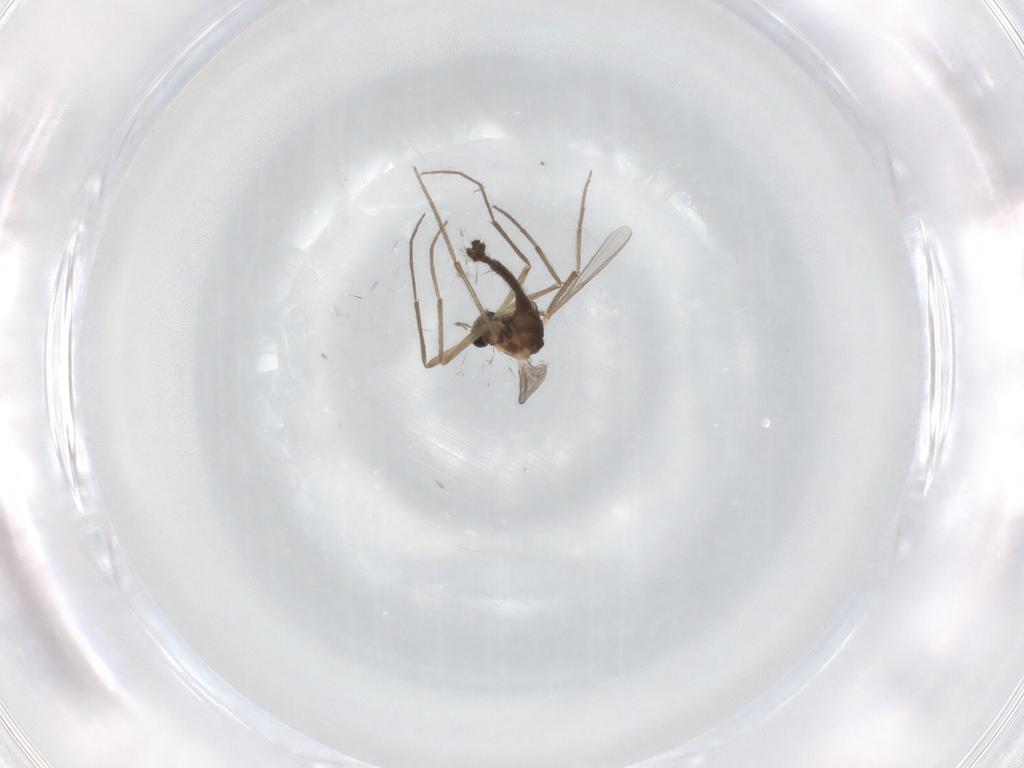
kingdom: Animalia
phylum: Arthropoda
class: Insecta
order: Diptera
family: Chironomidae
